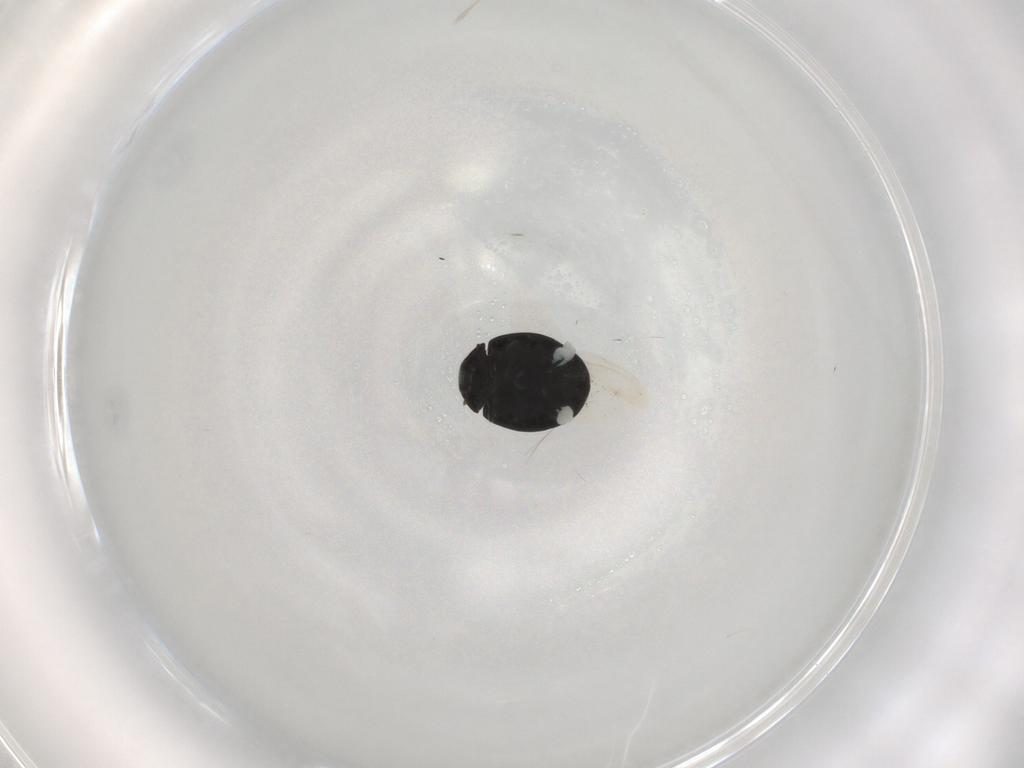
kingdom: Animalia
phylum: Arthropoda
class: Insecta
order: Coleoptera
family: Coccinellidae
